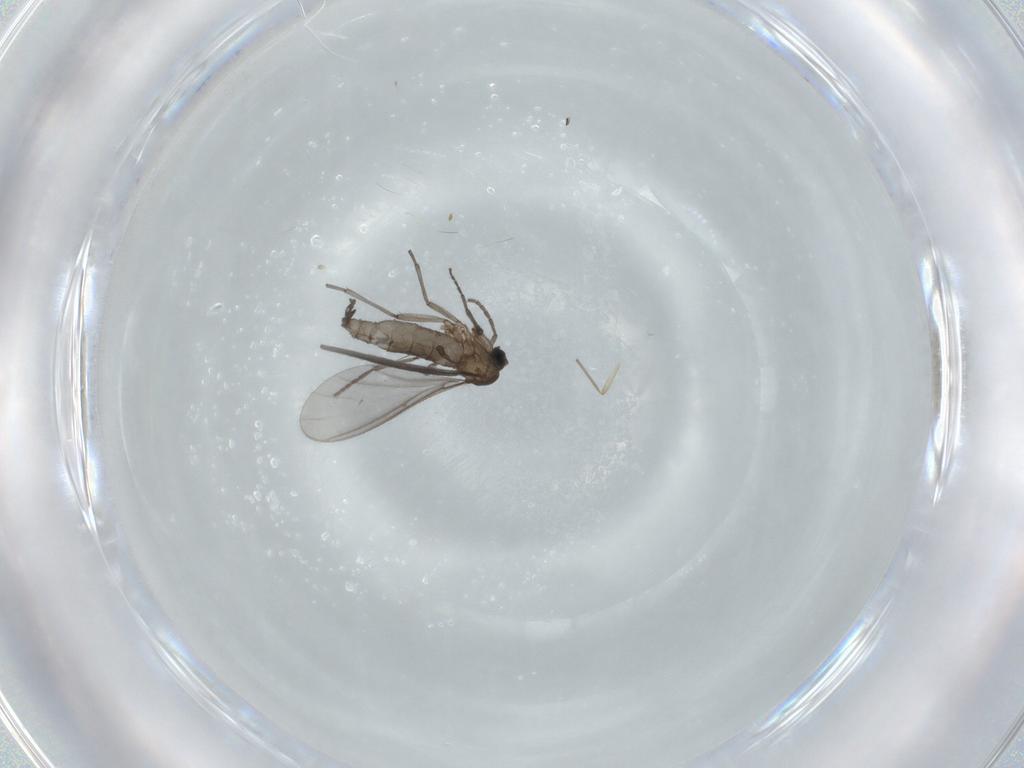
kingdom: Animalia
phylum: Arthropoda
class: Insecta
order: Diptera
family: Sciaridae
